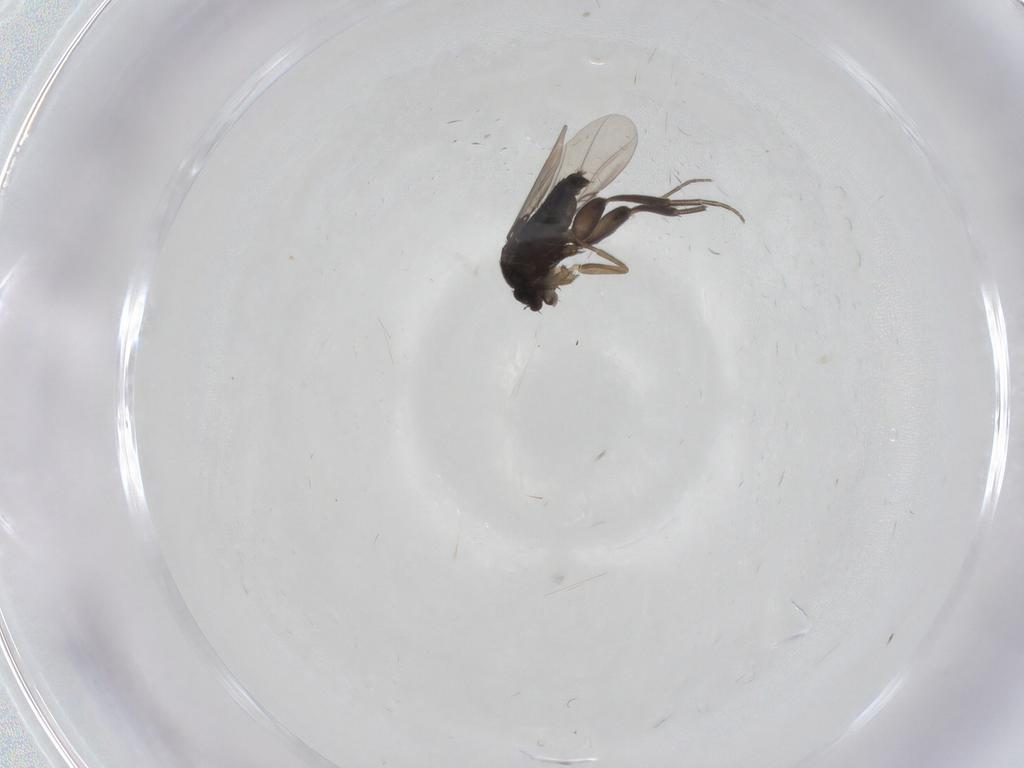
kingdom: Animalia
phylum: Arthropoda
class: Insecta
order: Diptera
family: Phoridae
